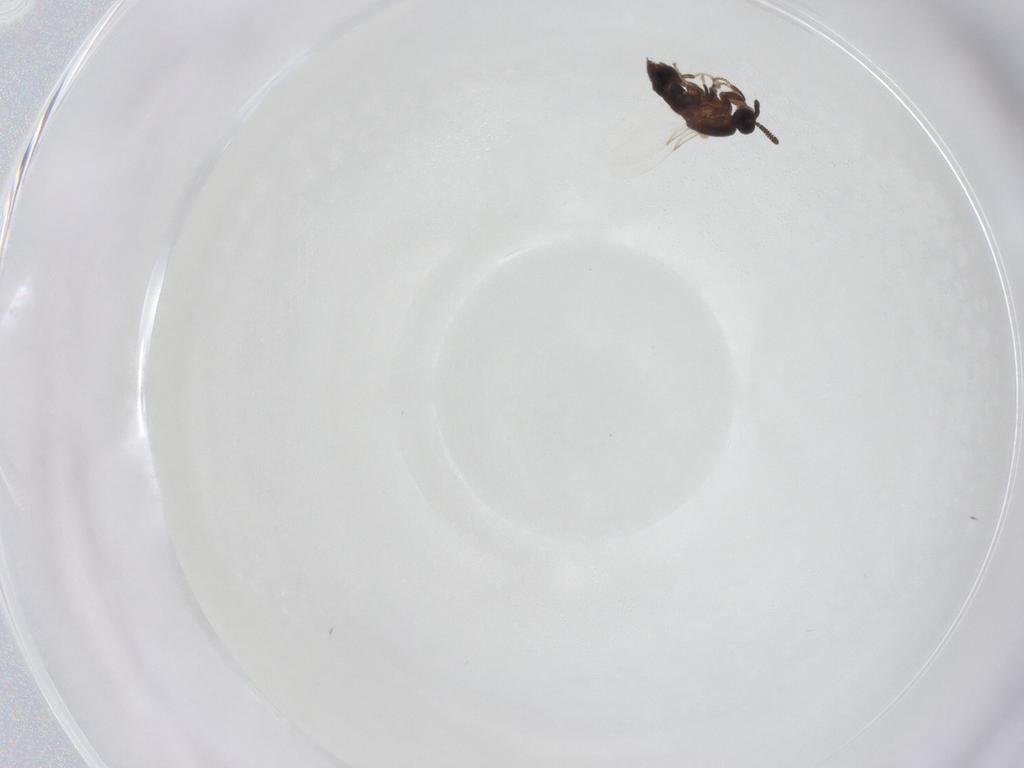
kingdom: Animalia
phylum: Arthropoda
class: Insecta
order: Diptera
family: Scatopsidae
